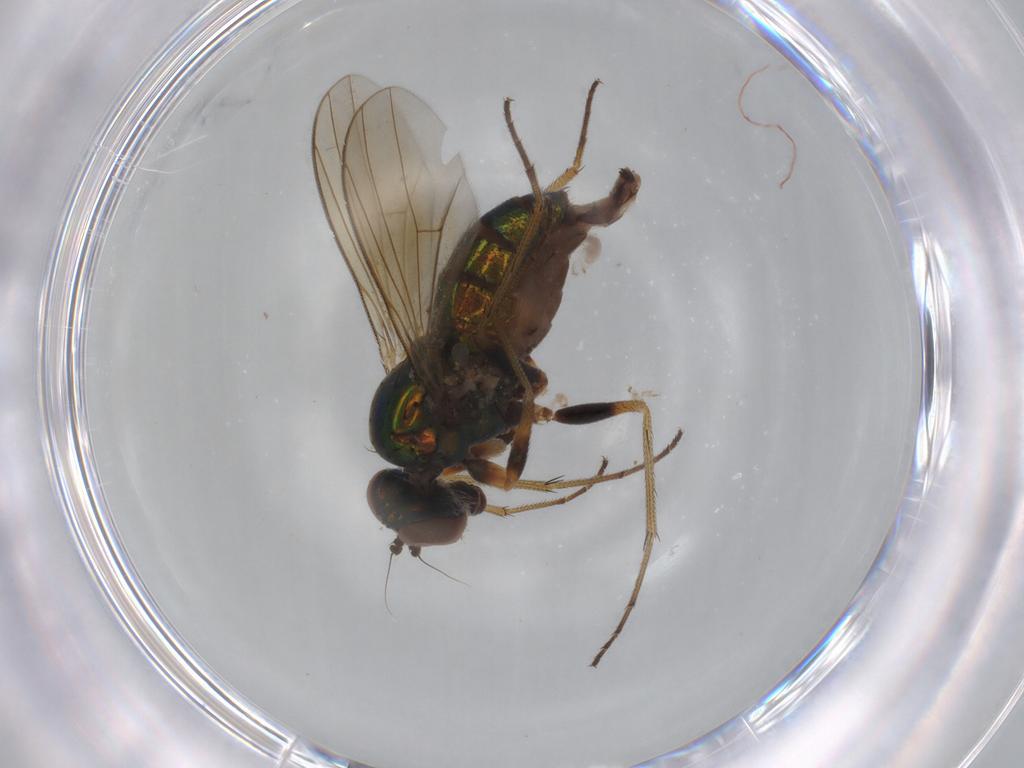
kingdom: Animalia
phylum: Arthropoda
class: Insecta
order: Diptera
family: Dolichopodidae
